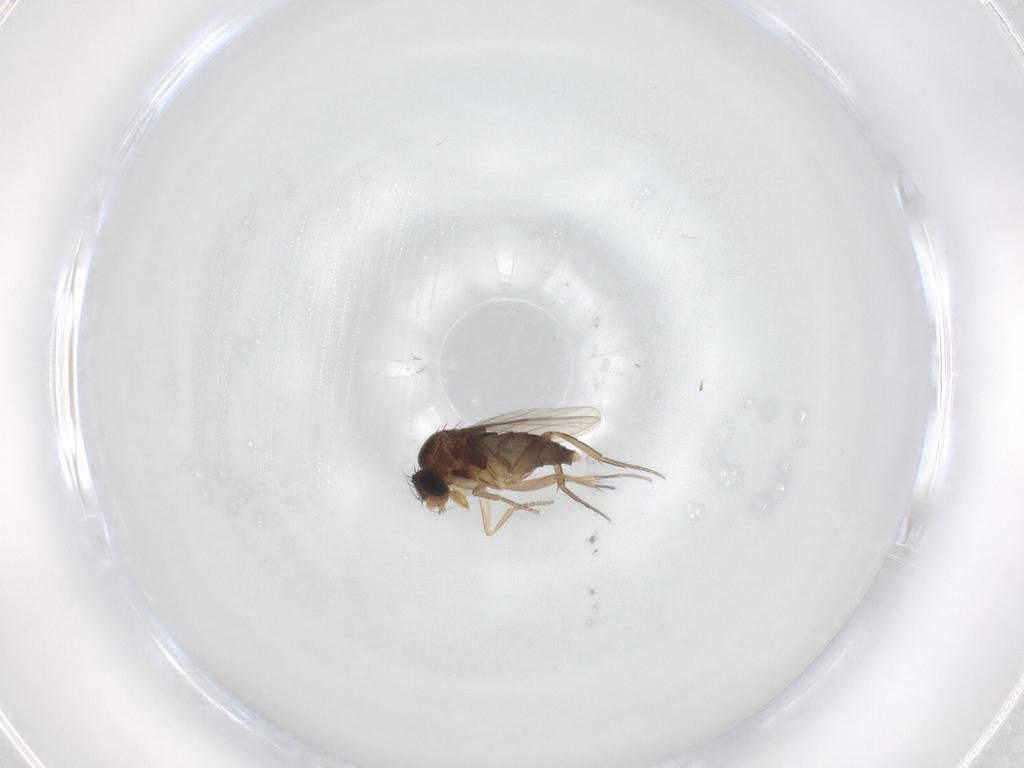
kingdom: Animalia
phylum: Arthropoda
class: Insecta
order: Diptera
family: Phoridae
